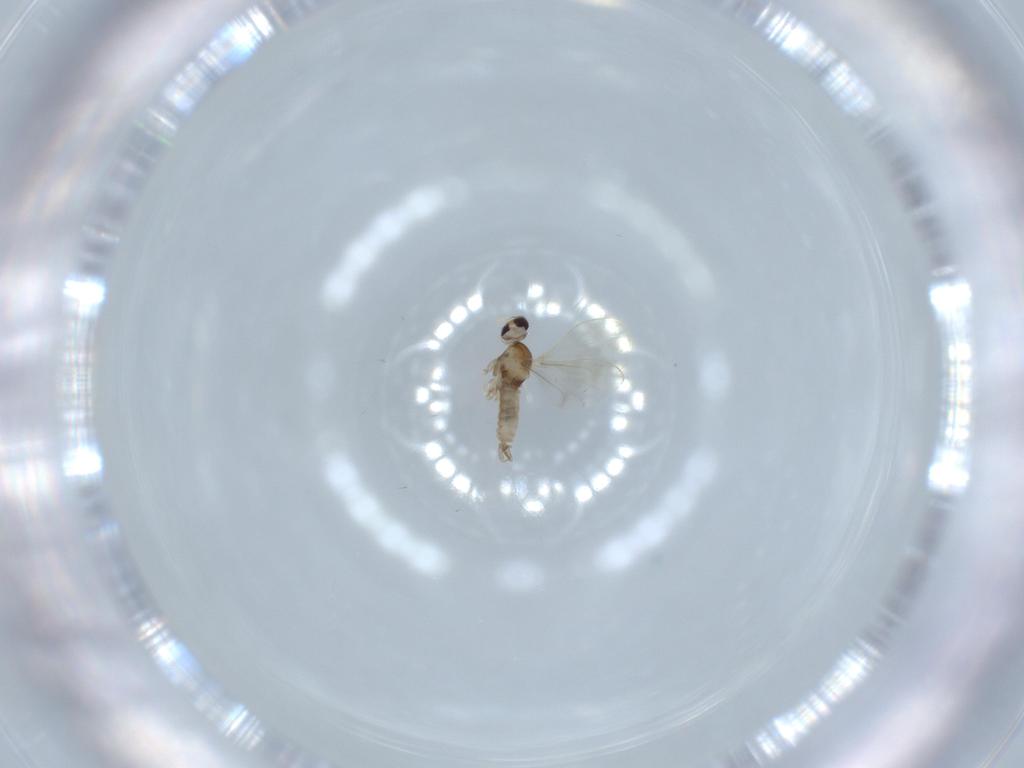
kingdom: Animalia
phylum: Arthropoda
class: Insecta
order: Diptera
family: Cecidomyiidae
